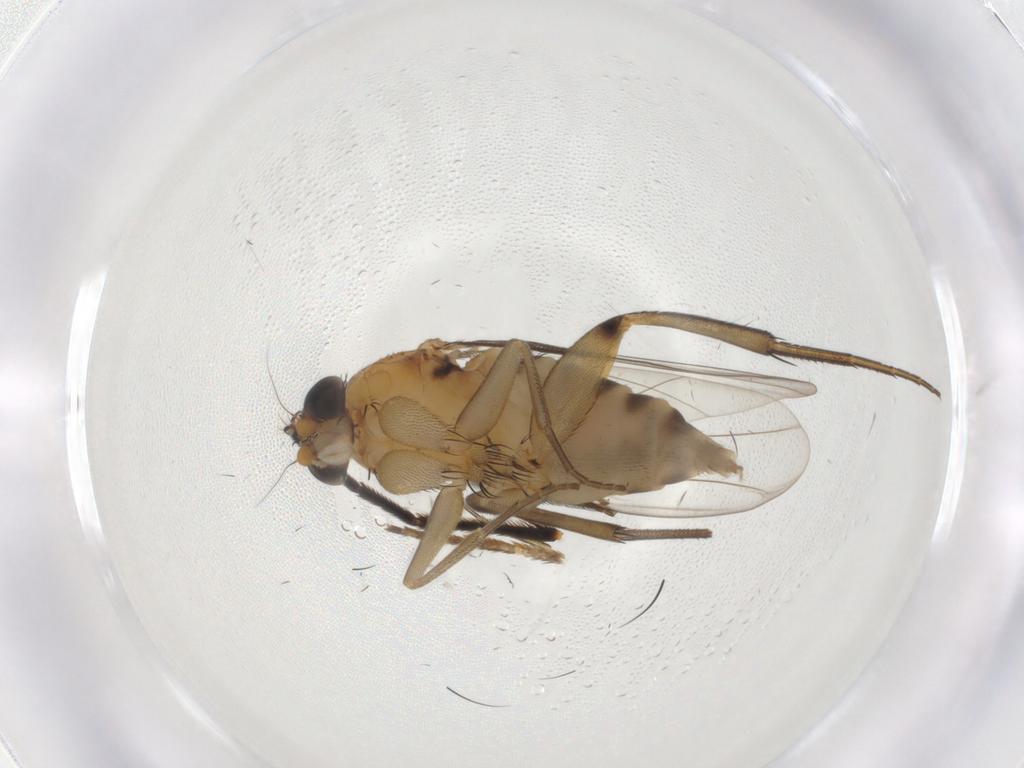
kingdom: Animalia
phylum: Arthropoda
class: Insecta
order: Diptera
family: Phoridae
